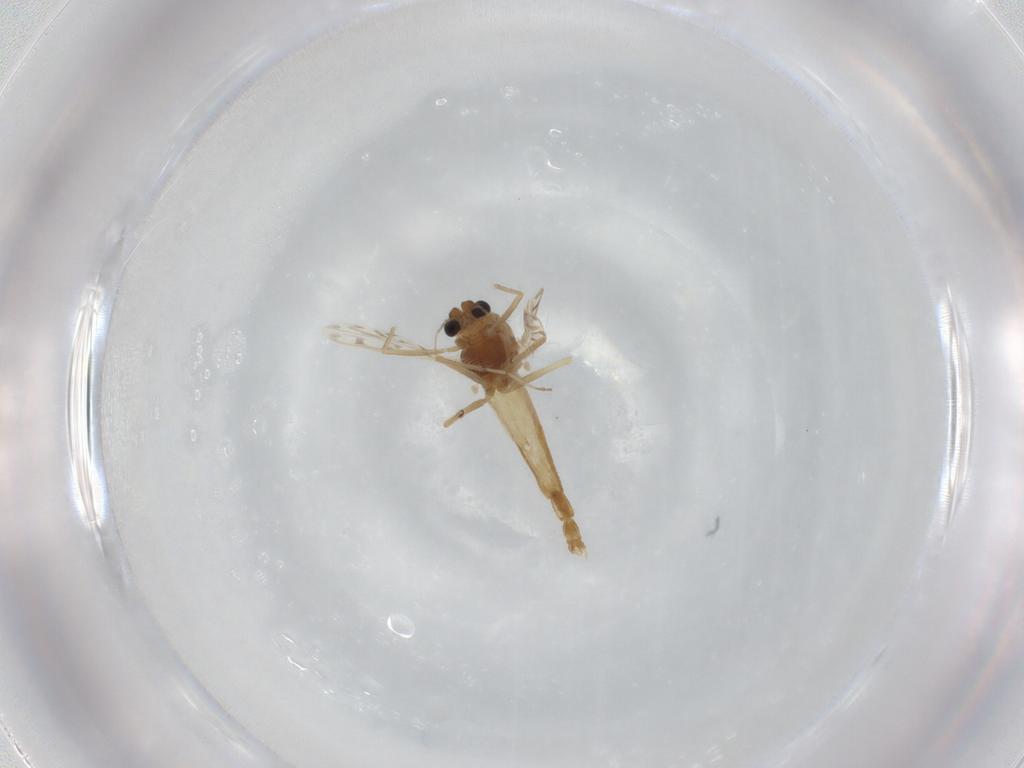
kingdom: Animalia
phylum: Arthropoda
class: Insecta
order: Diptera
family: Chironomidae
